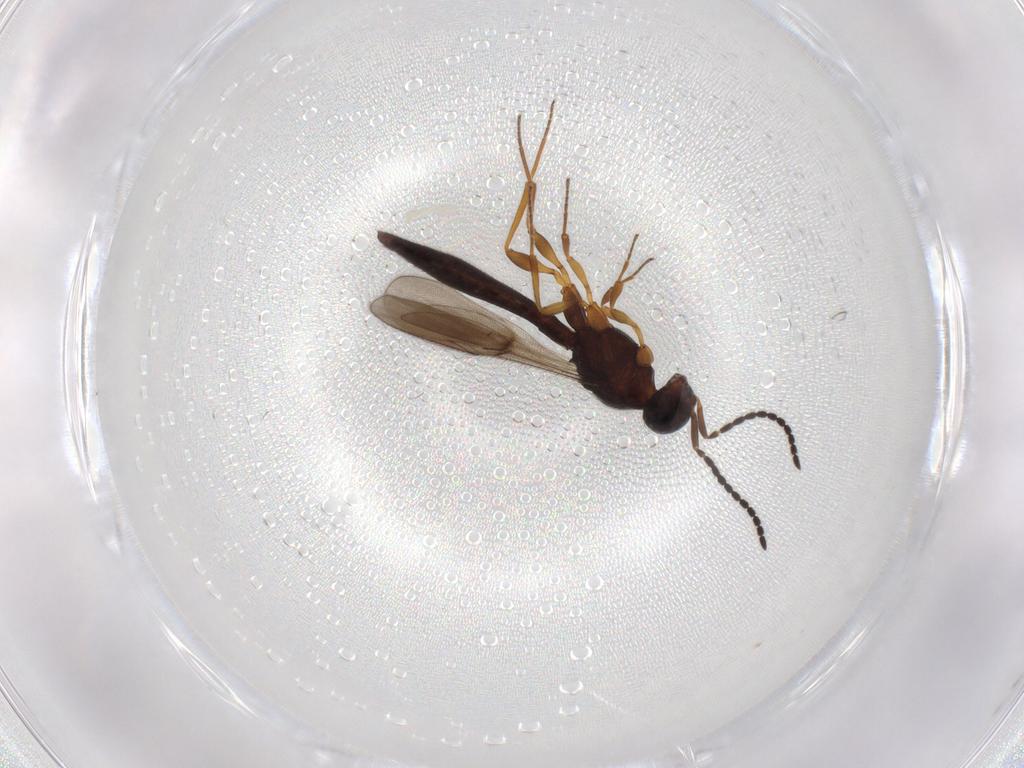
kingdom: Animalia
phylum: Arthropoda
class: Insecta
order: Hymenoptera
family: Scelionidae
